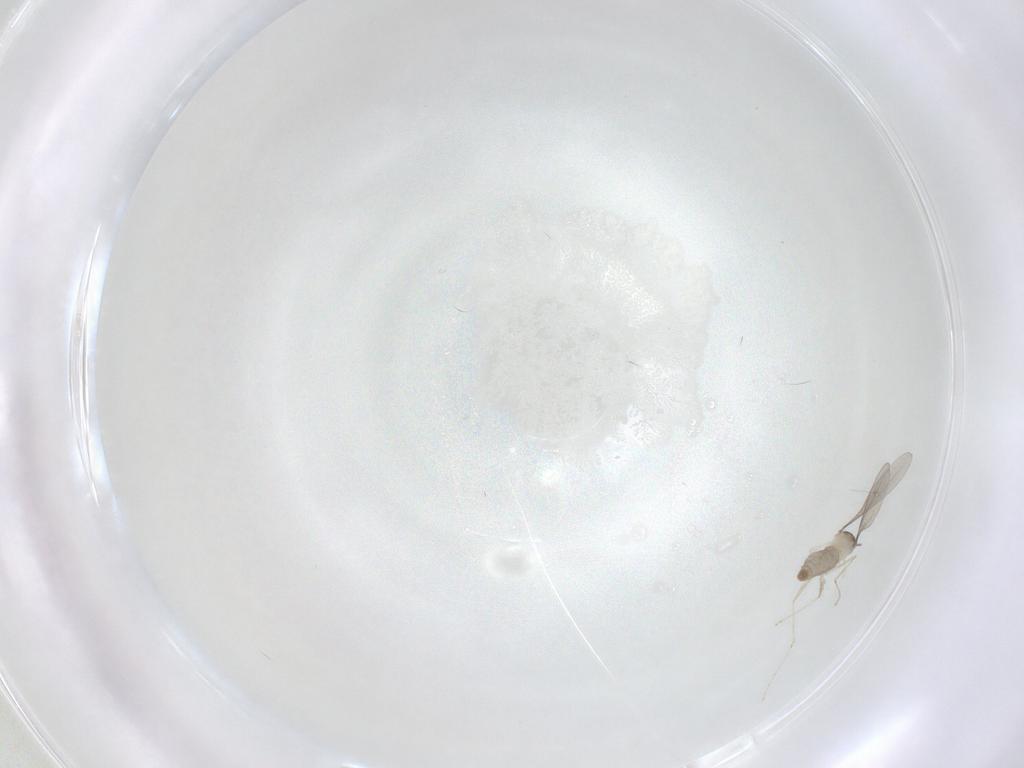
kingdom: Animalia
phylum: Arthropoda
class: Insecta
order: Diptera
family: Cecidomyiidae
